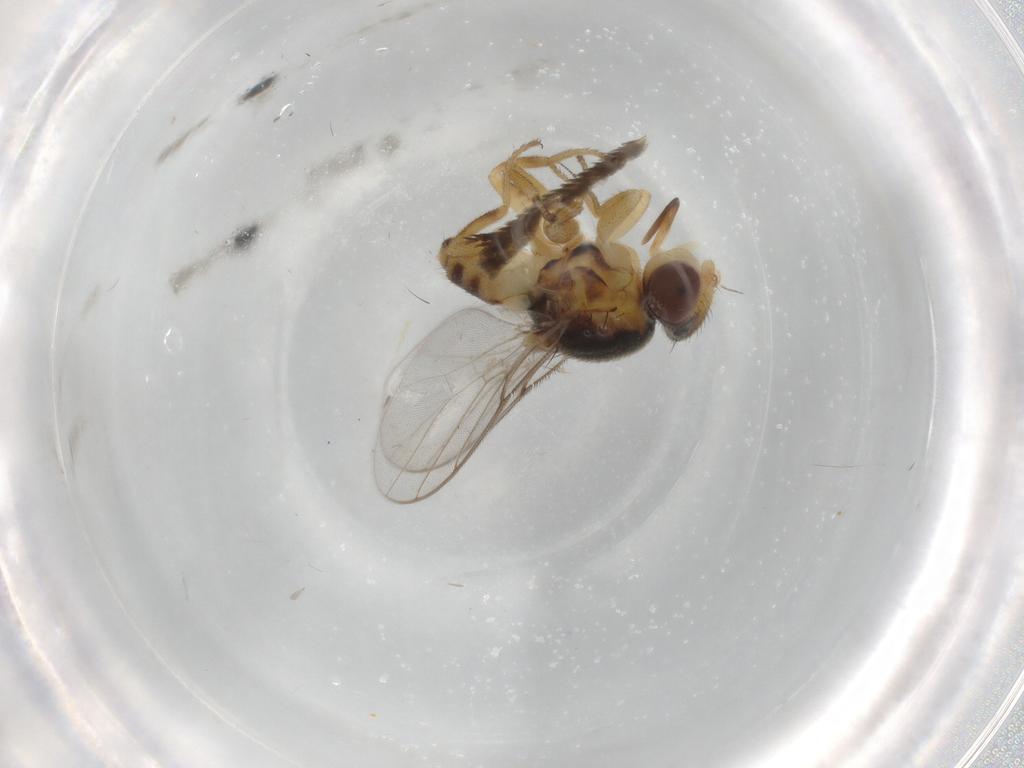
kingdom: Animalia
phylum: Arthropoda
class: Insecta
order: Diptera
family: Chloropidae
